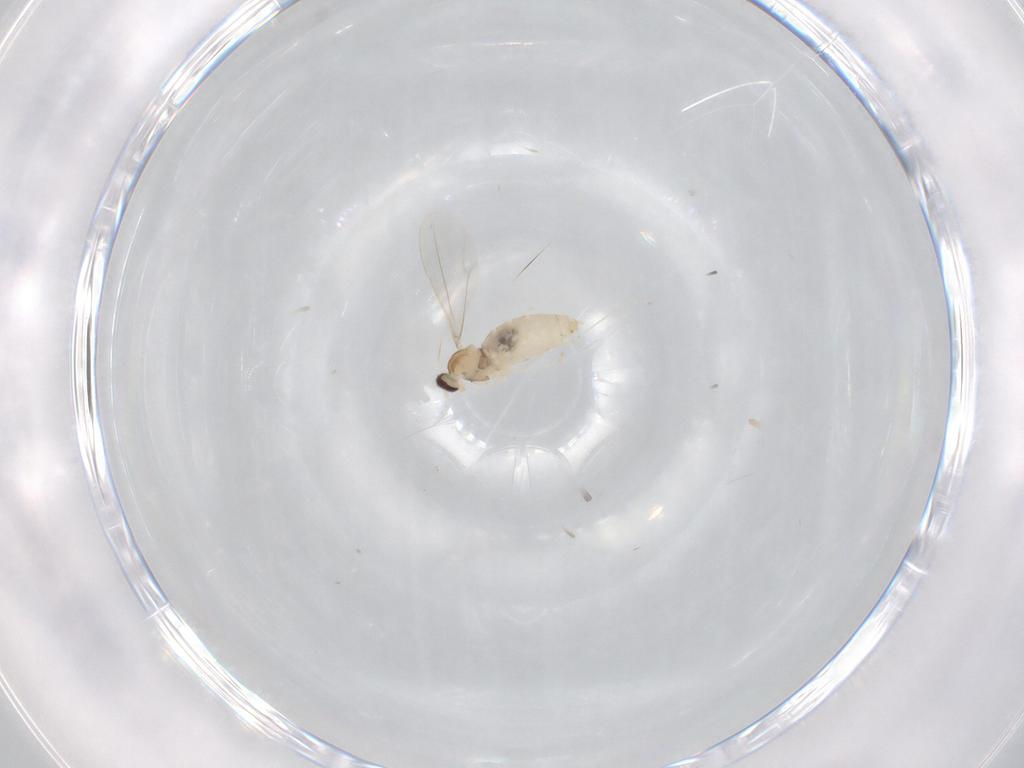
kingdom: Animalia
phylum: Arthropoda
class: Insecta
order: Diptera
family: Cecidomyiidae
